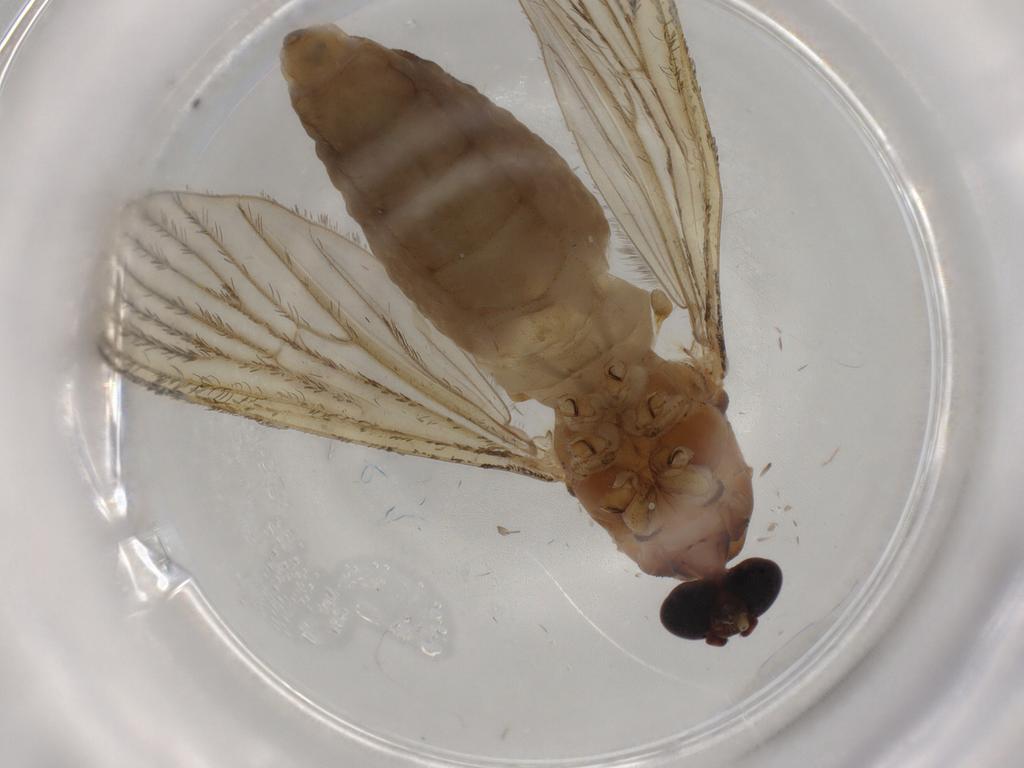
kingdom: Animalia
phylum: Arthropoda
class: Insecta
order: Diptera
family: Culicidae
